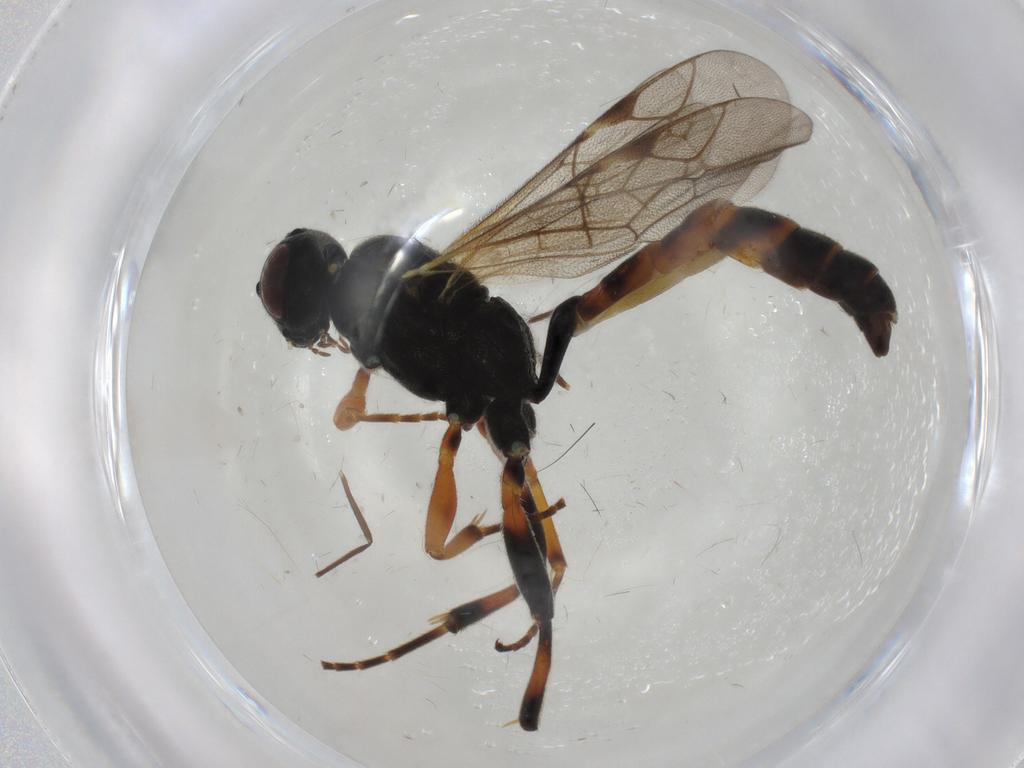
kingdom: Animalia
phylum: Arthropoda
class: Insecta
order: Hymenoptera
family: Ichneumonidae
